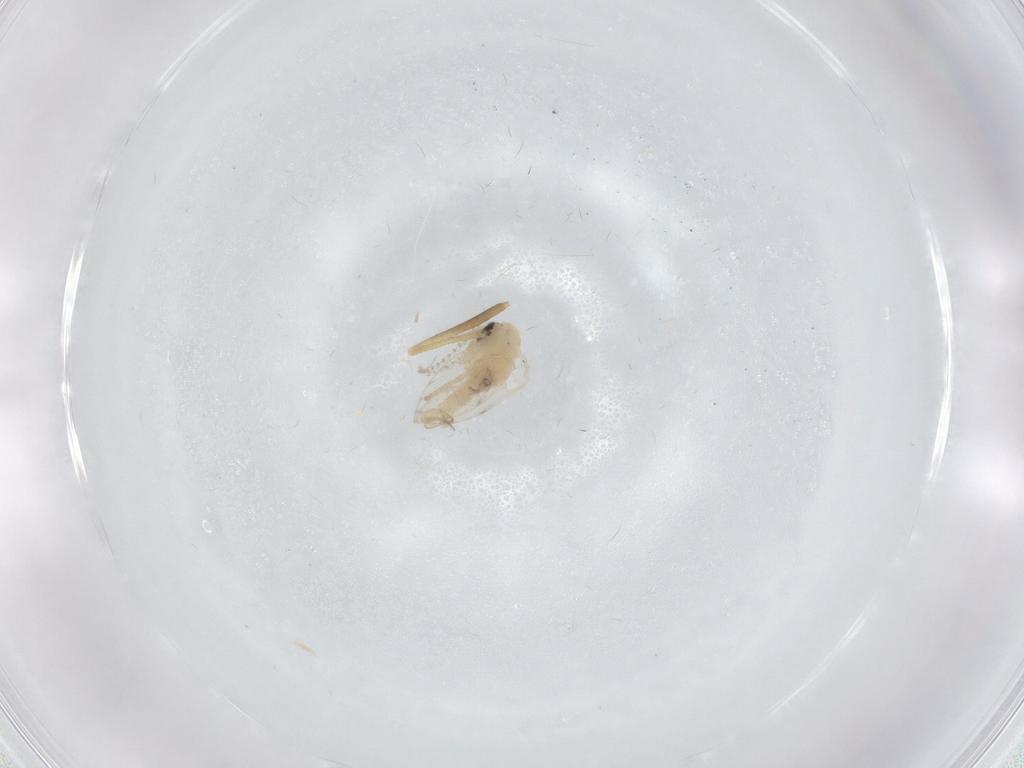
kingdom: Animalia
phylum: Arthropoda
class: Insecta
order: Diptera
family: Psychodidae
